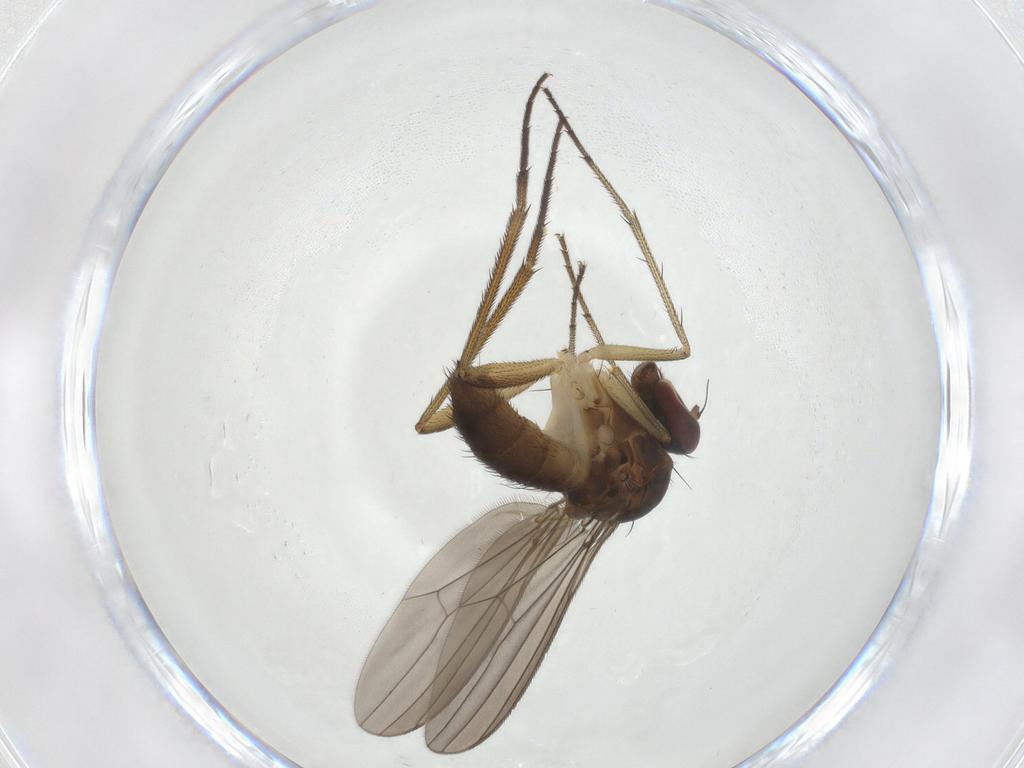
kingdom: Animalia
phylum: Arthropoda
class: Insecta
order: Diptera
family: Dolichopodidae
